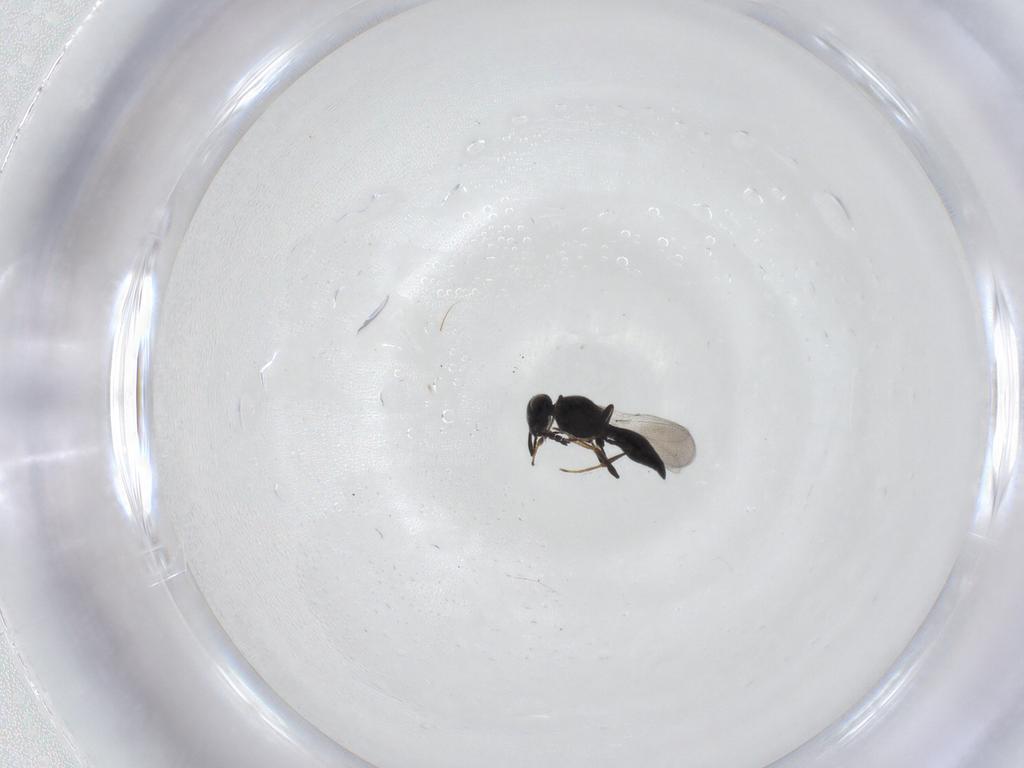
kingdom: Animalia
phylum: Arthropoda
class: Insecta
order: Hymenoptera
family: Platygastridae
